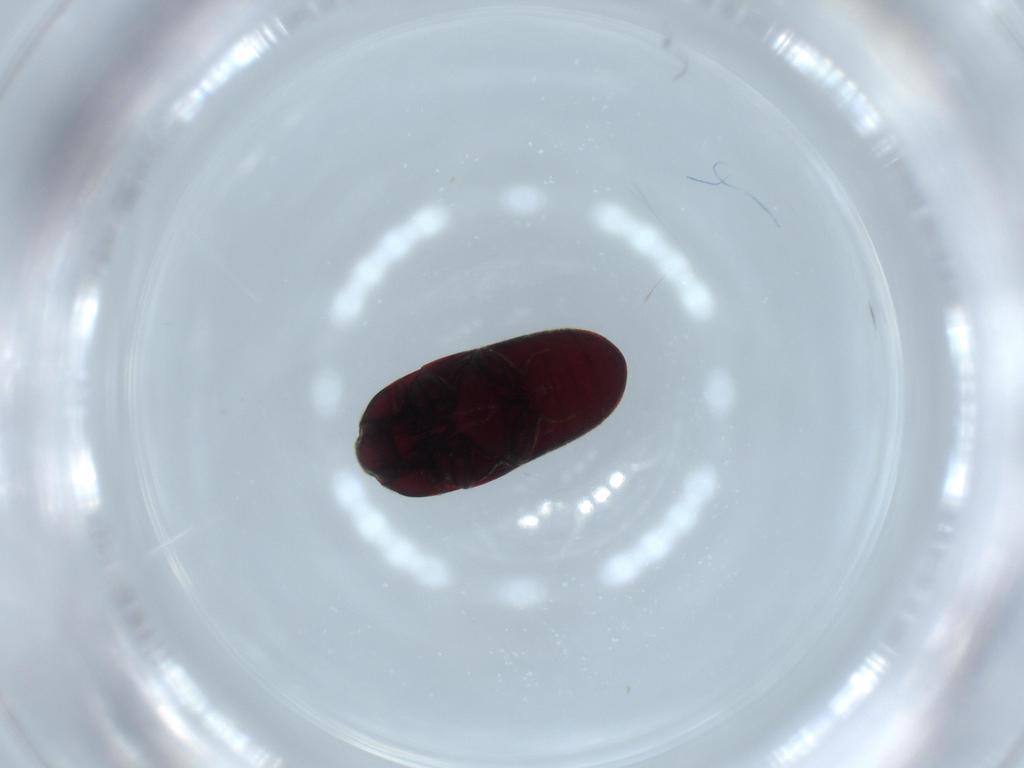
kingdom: Animalia
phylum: Arthropoda
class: Insecta
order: Coleoptera
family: Throscidae
